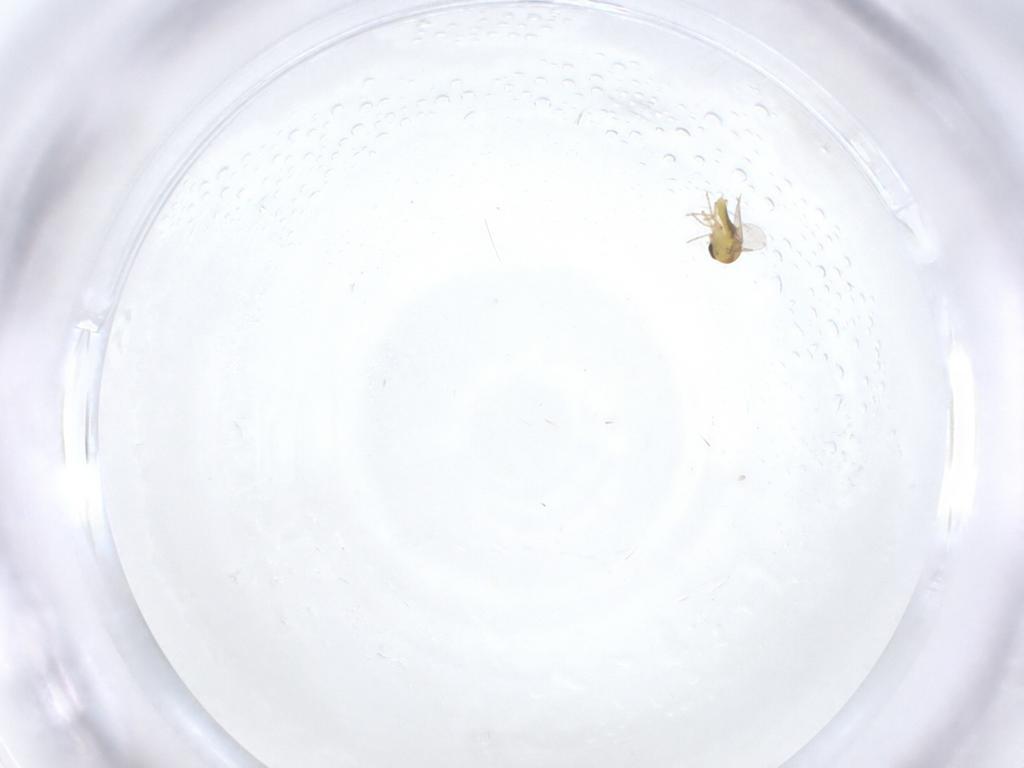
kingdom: Animalia
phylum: Arthropoda
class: Insecta
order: Diptera
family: Ceratopogonidae
